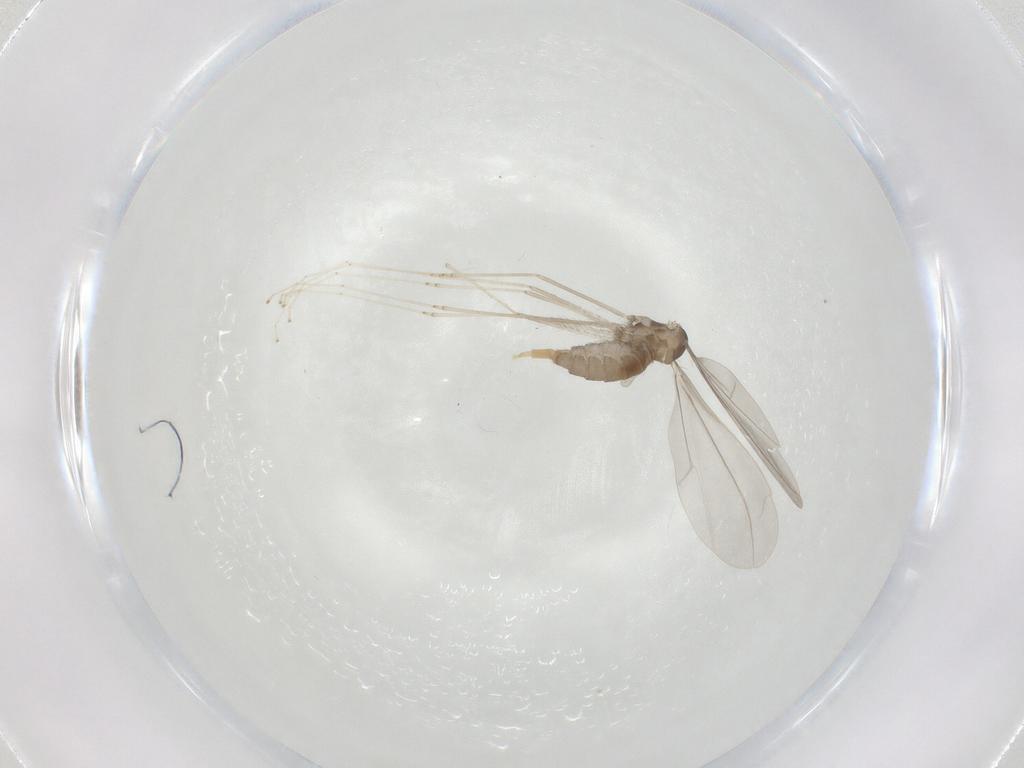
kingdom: Animalia
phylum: Arthropoda
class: Insecta
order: Diptera
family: Cecidomyiidae
